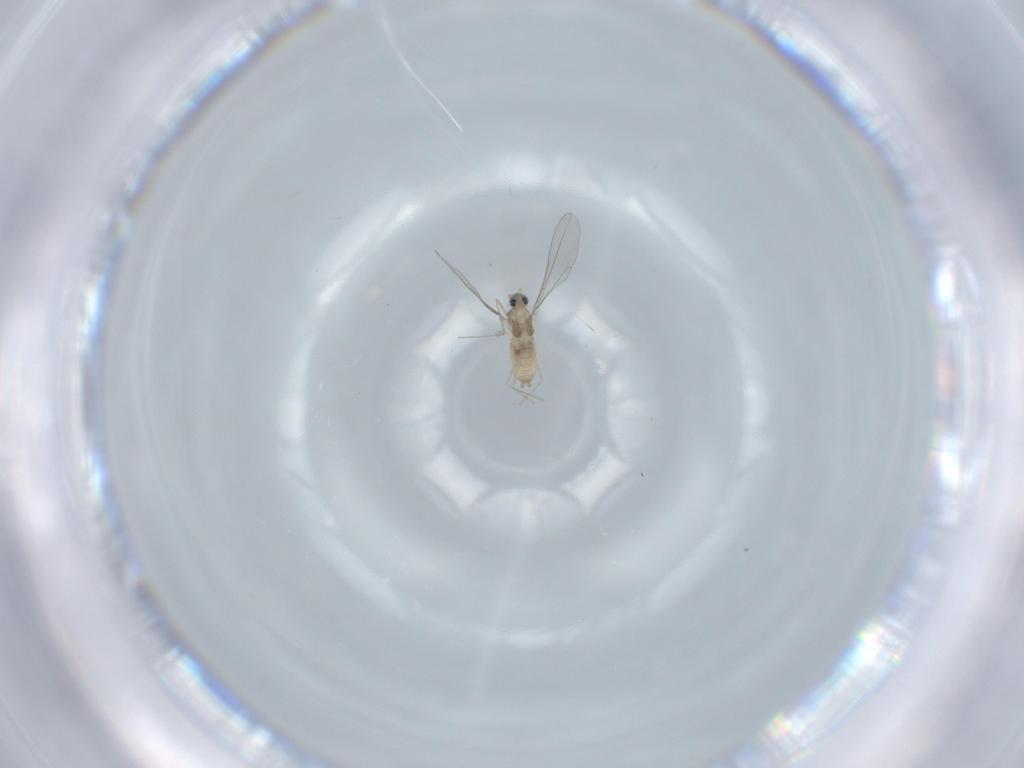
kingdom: Animalia
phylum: Arthropoda
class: Insecta
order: Diptera
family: Cecidomyiidae
